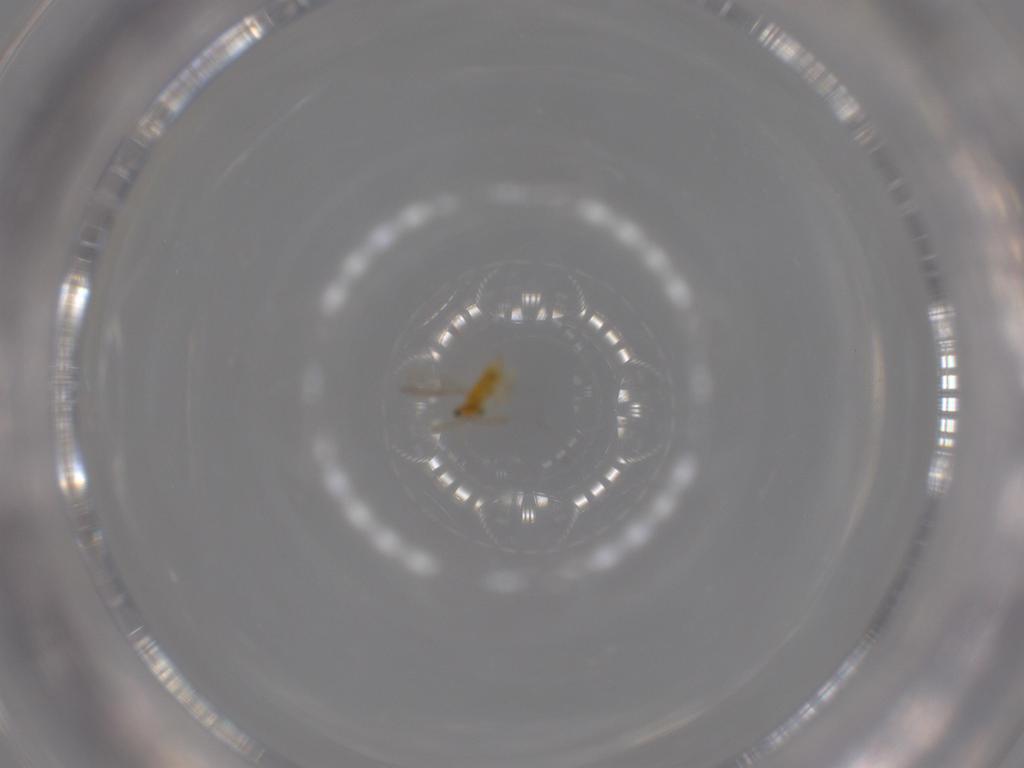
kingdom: Animalia
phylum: Arthropoda
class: Insecta
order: Hymenoptera
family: Aphelinidae
